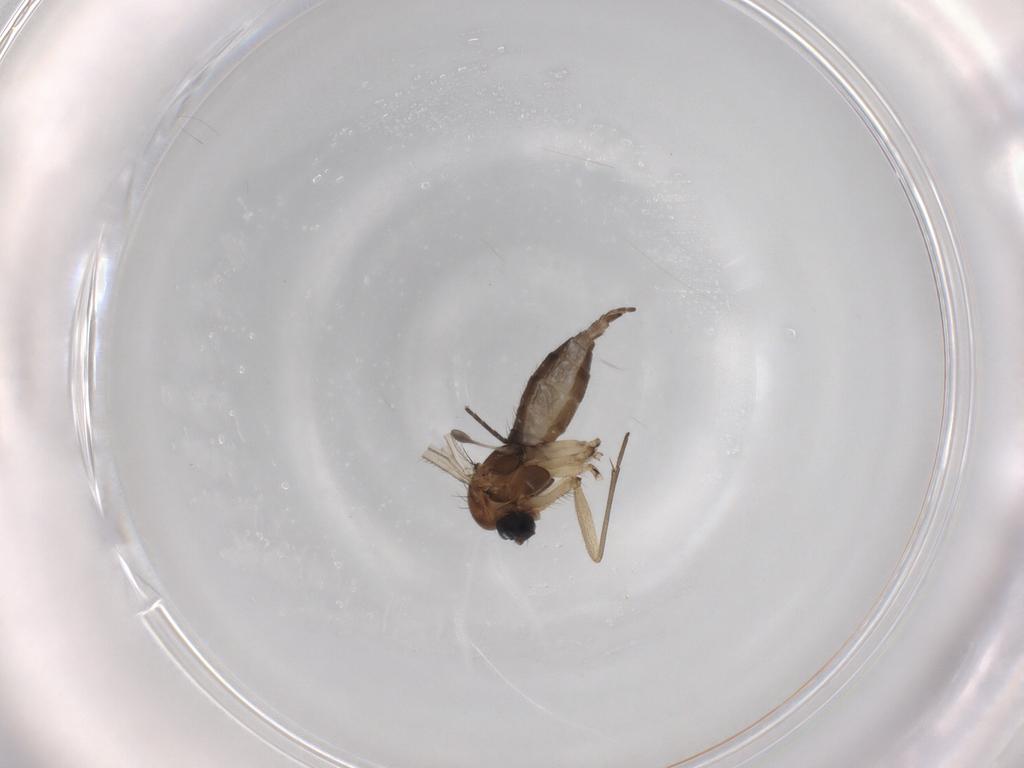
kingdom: Animalia
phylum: Arthropoda
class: Insecta
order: Diptera
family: Sciaridae
